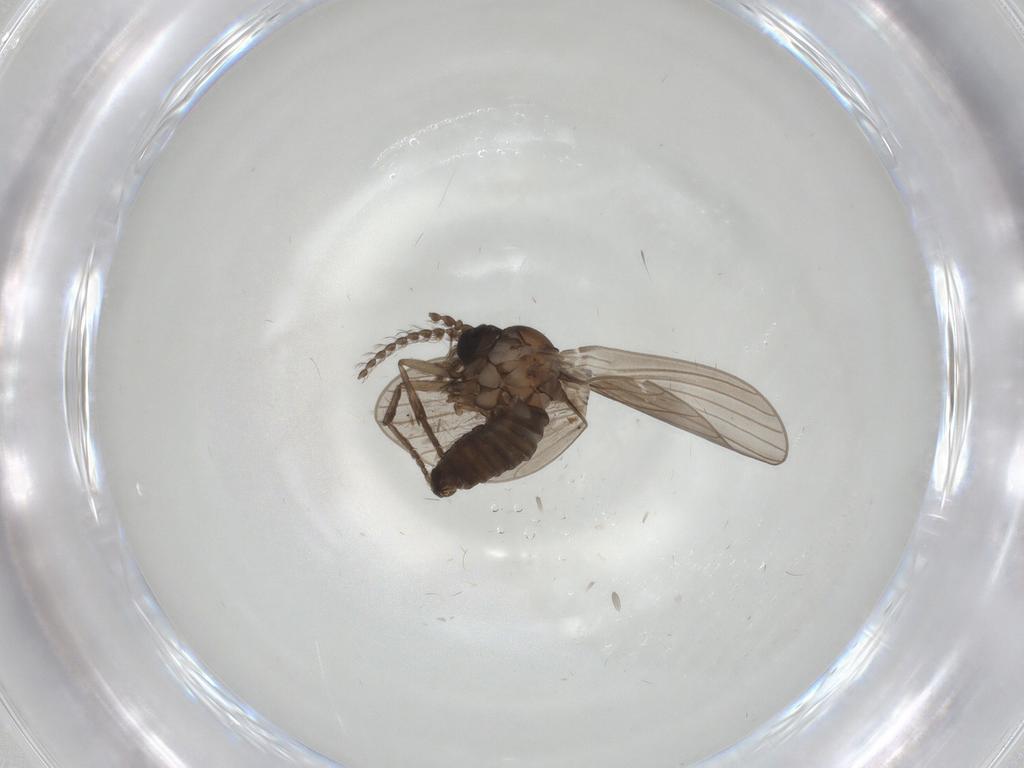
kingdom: Animalia
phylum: Arthropoda
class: Insecta
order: Diptera
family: Psychodidae
